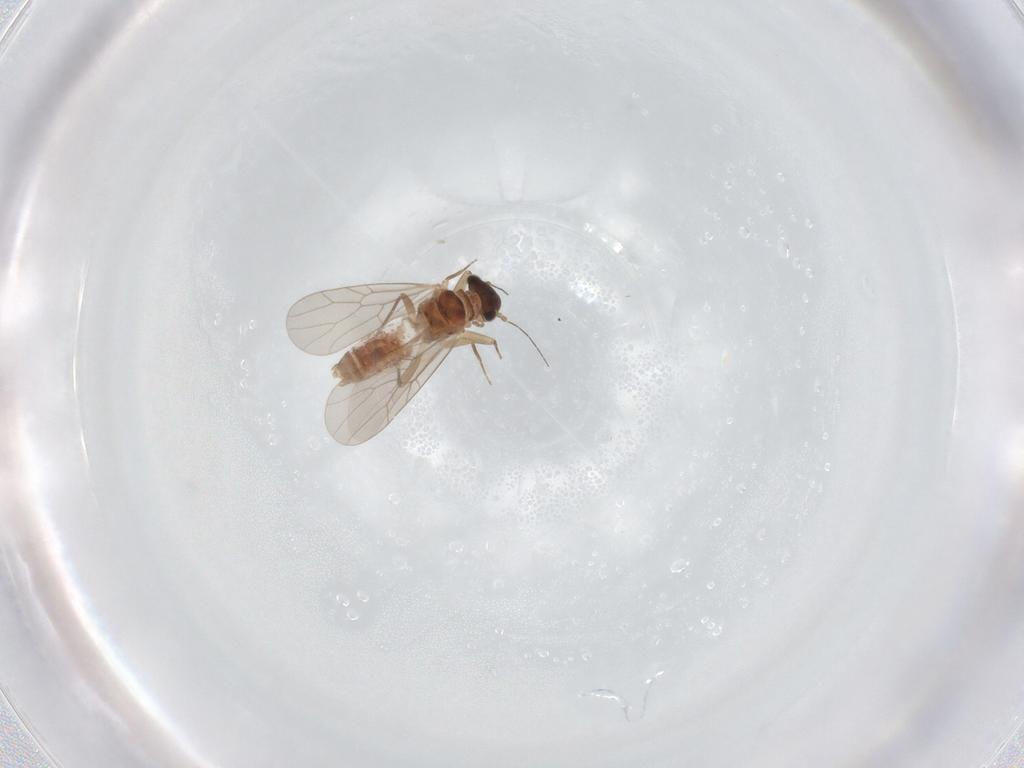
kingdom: Animalia
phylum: Arthropoda
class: Insecta
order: Psocodea
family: Lepidopsocidae
